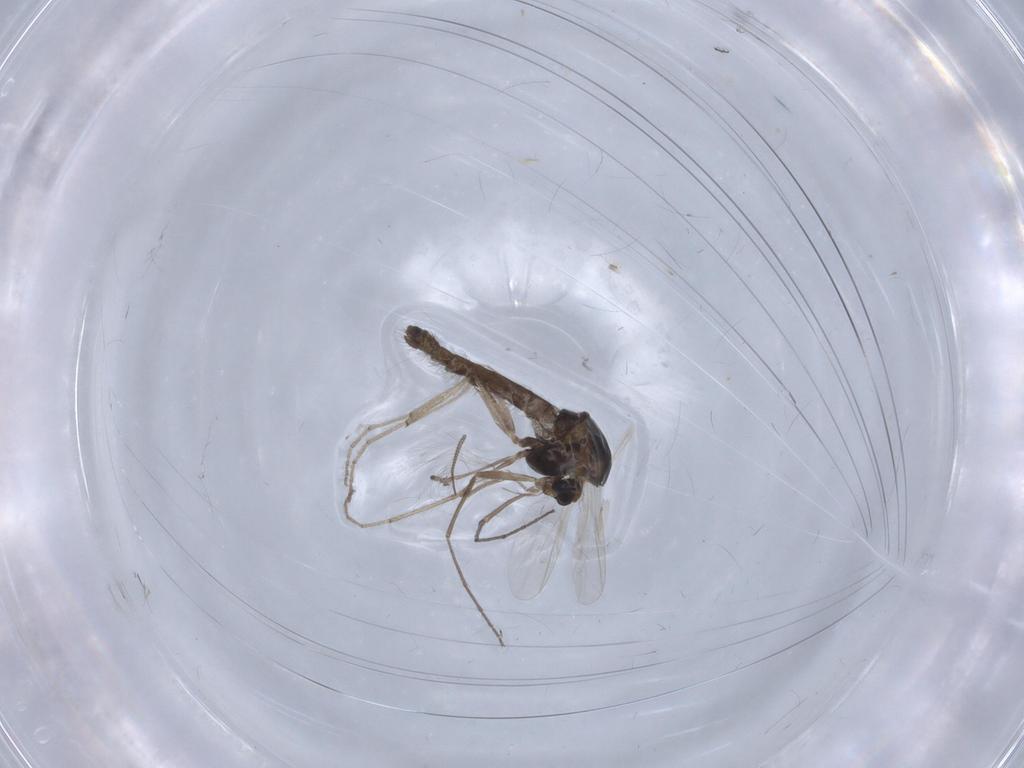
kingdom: Animalia
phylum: Arthropoda
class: Insecta
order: Diptera
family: Chironomidae
